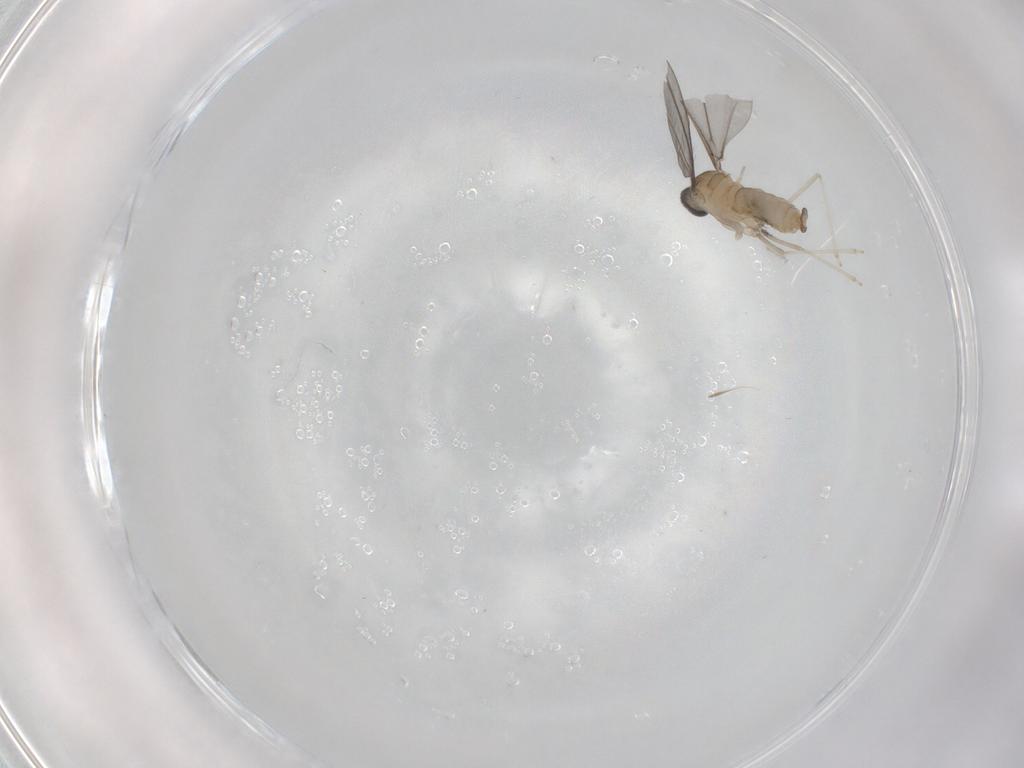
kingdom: Animalia
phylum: Arthropoda
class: Insecta
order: Diptera
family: Cecidomyiidae
